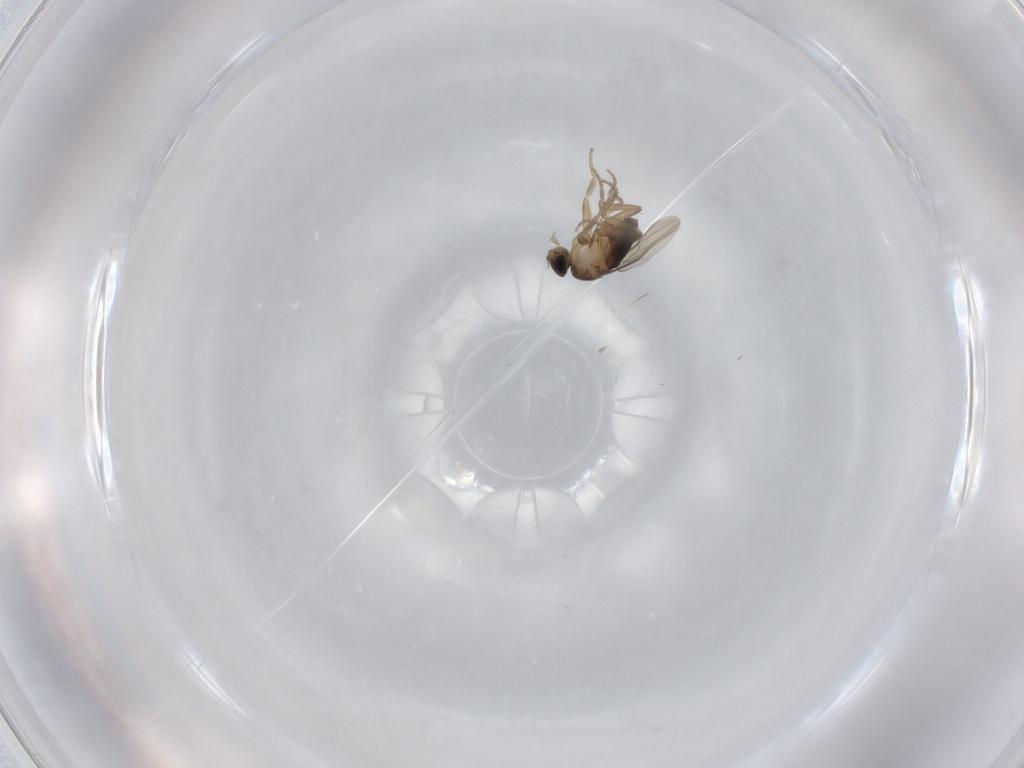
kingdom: Animalia
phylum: Arthropoda
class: Insecta
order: Diptera
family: Phoridae
